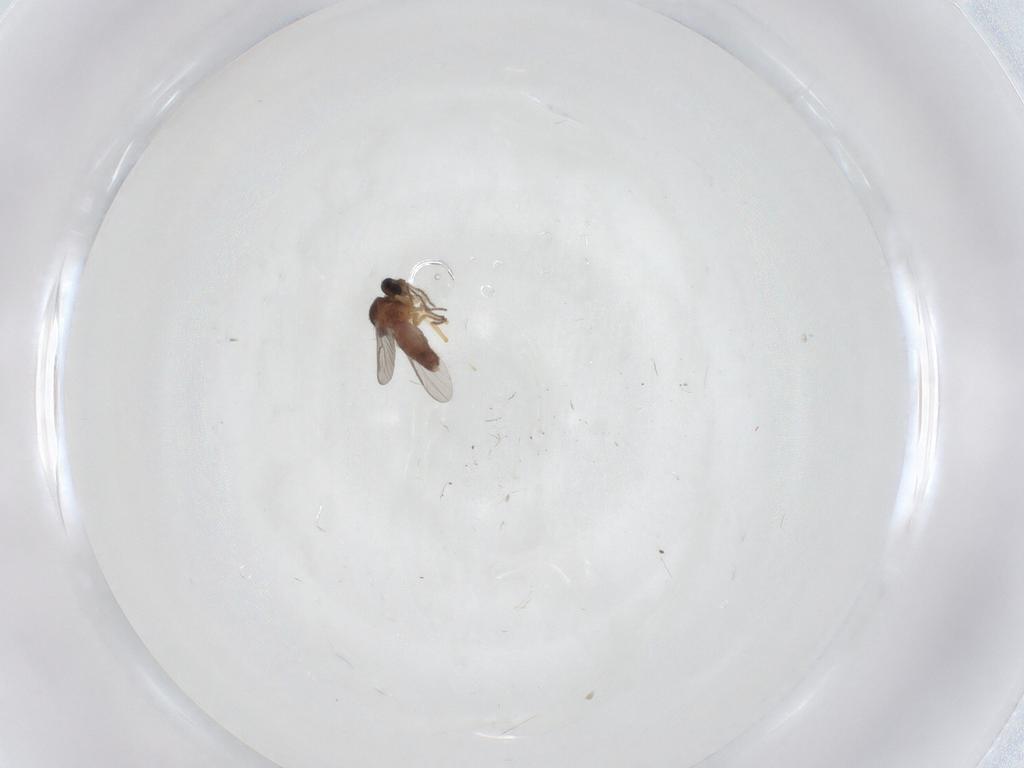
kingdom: Animalia
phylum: Arthropoda
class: Insecta
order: Diptera
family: Ceratopogonidae
